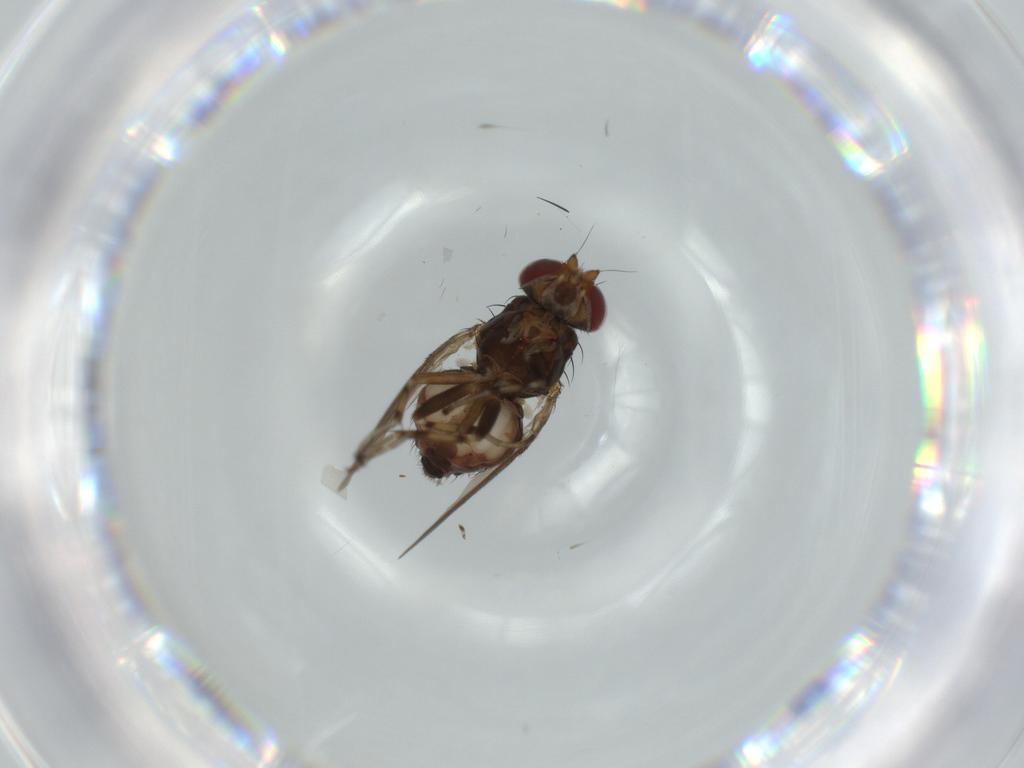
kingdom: Animalia
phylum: Arthropoda
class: Insecta
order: Diptera
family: Heleomyzidae
